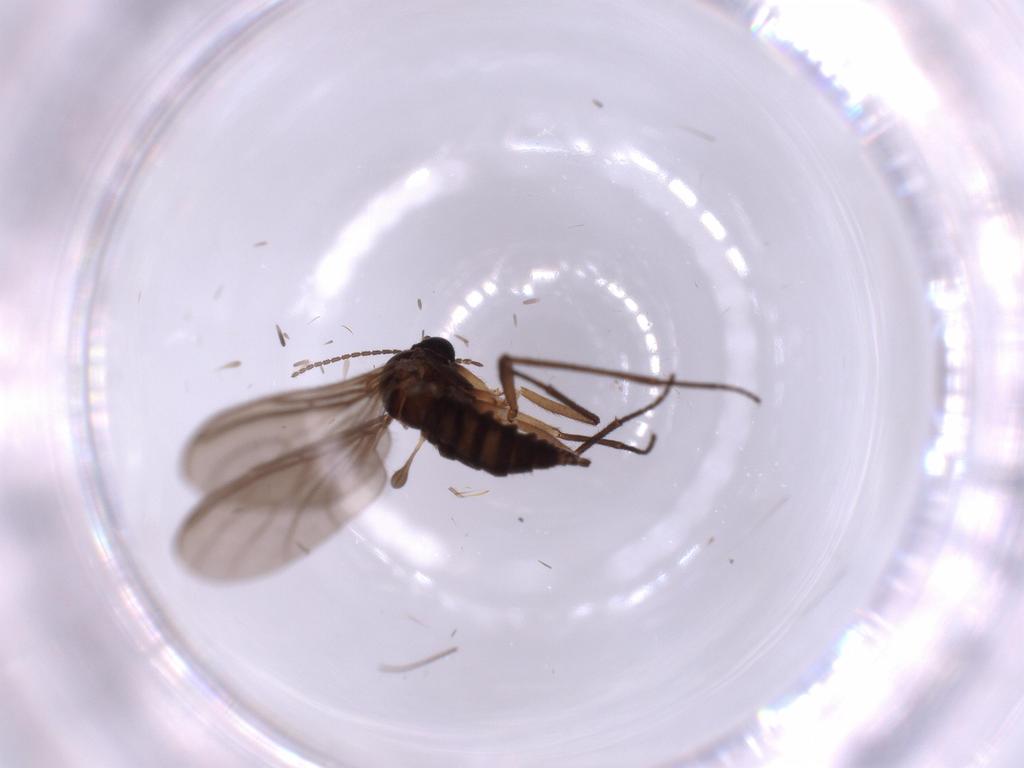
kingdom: Animalia
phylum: Arthropoda
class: Insecta
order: Diptera
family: Sciaridae
